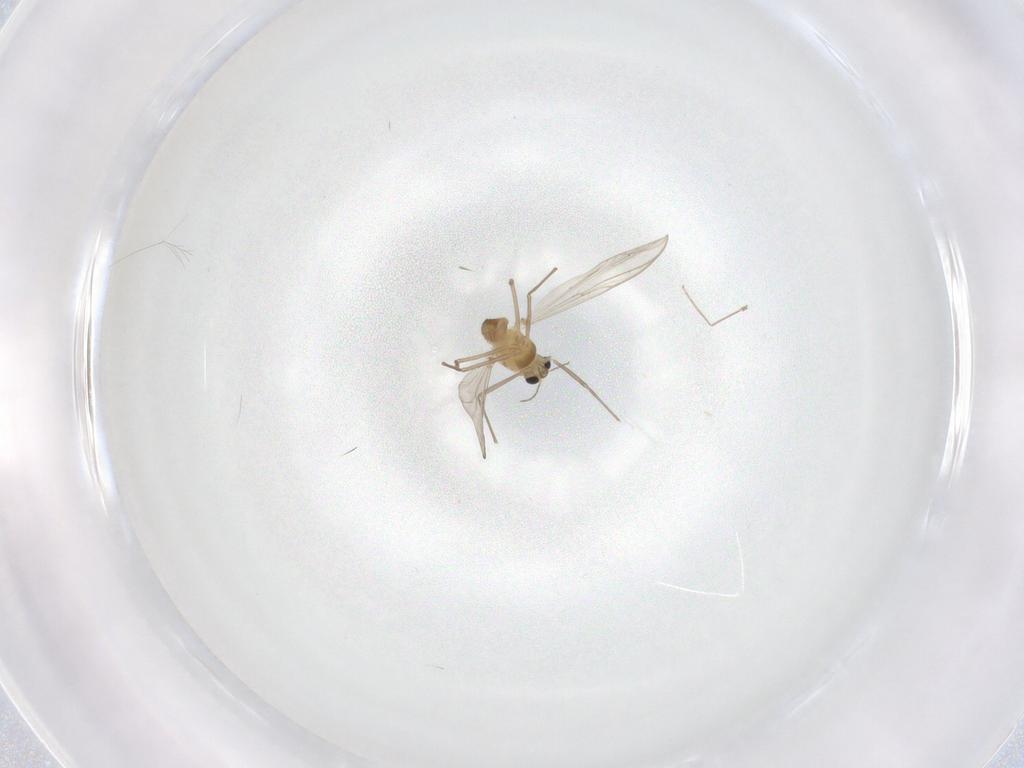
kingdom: Animalia
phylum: Arthropoda
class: Insecta
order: Diptera
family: Chironomidae
